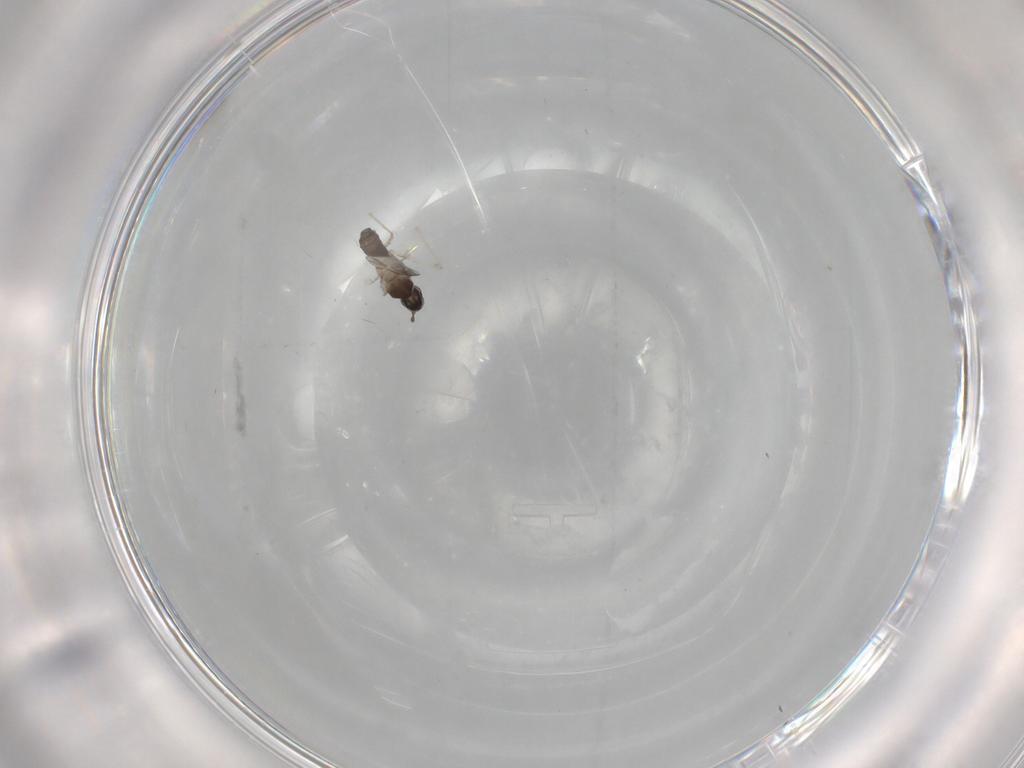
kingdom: Animalia
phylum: Arthropoda
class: Insecta
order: Diptera
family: Cecidomyiidae
